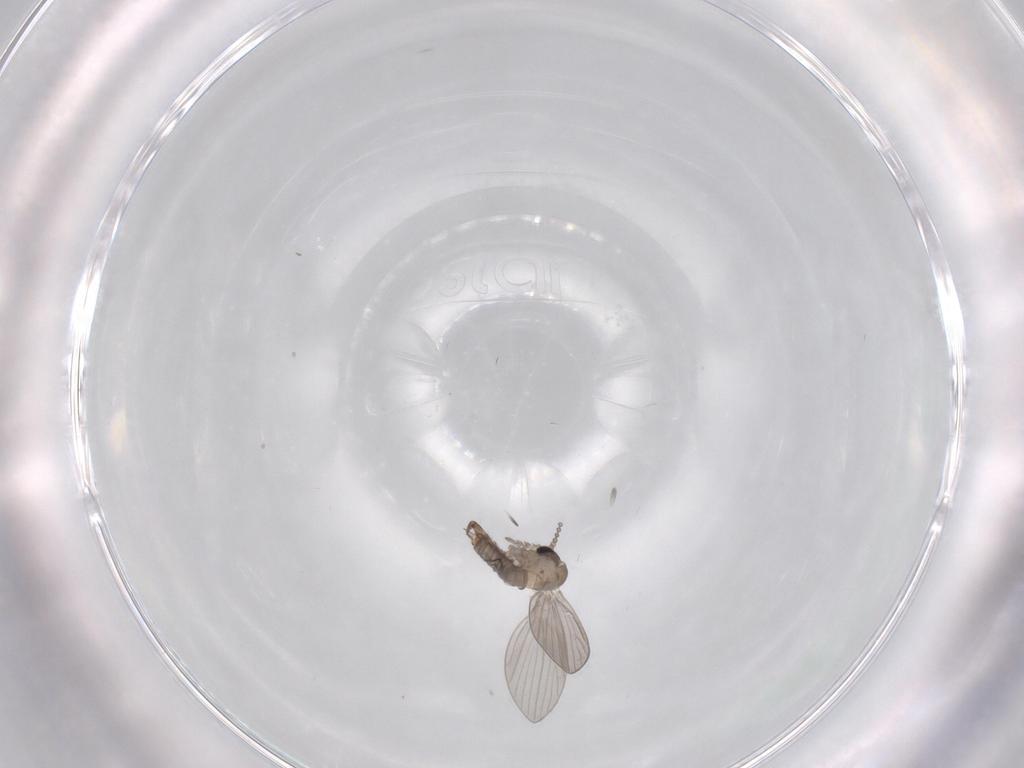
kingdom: Animalia
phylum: Arthropoda
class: Insecta
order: Diptera
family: Psychodidae
